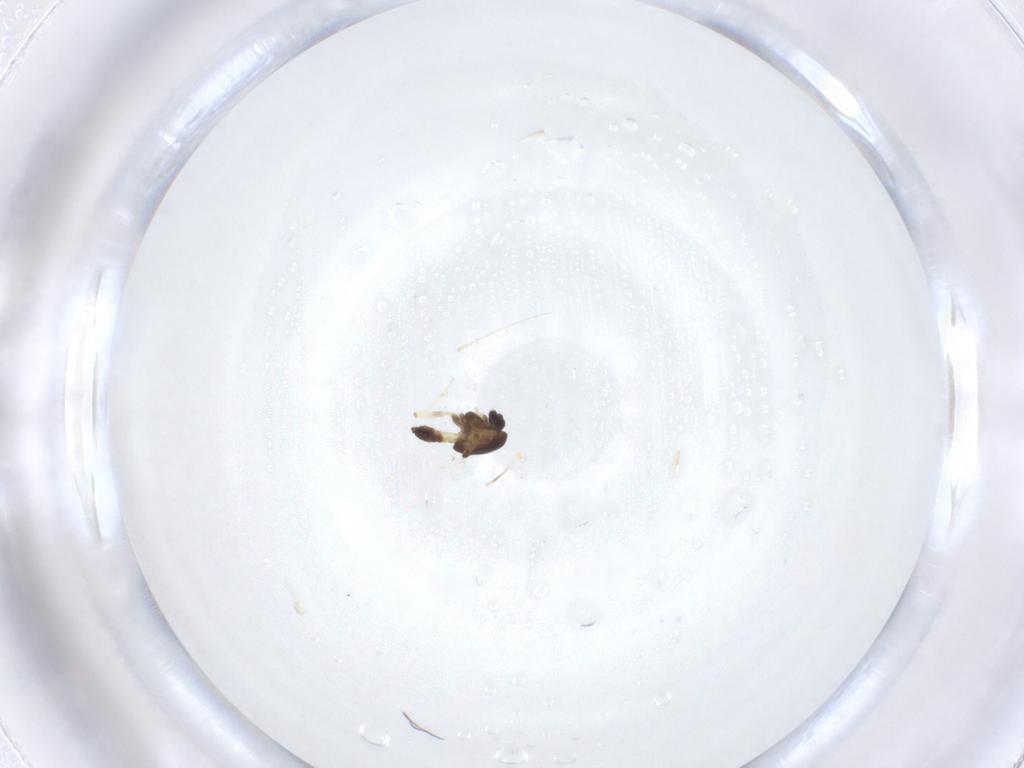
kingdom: Animalia
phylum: Arthropoda
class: Insecta
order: Diptera
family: Chironomidae
